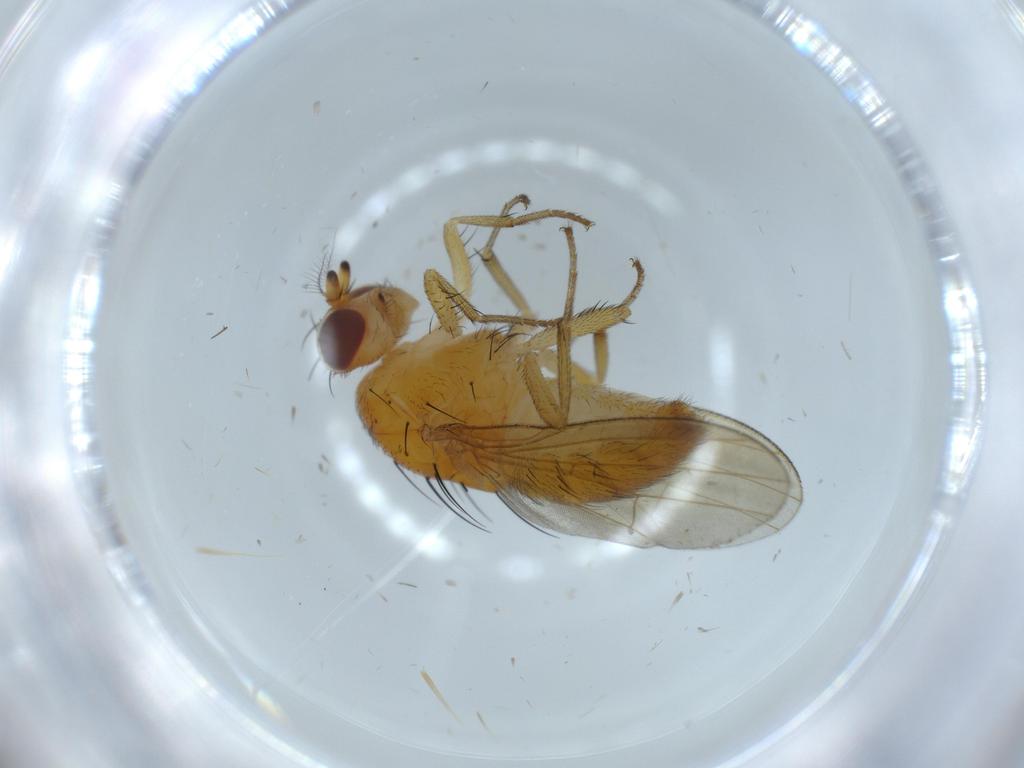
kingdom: Animalia
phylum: Arthropoda
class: Insecta
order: Diptera
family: Lauxaniidae
